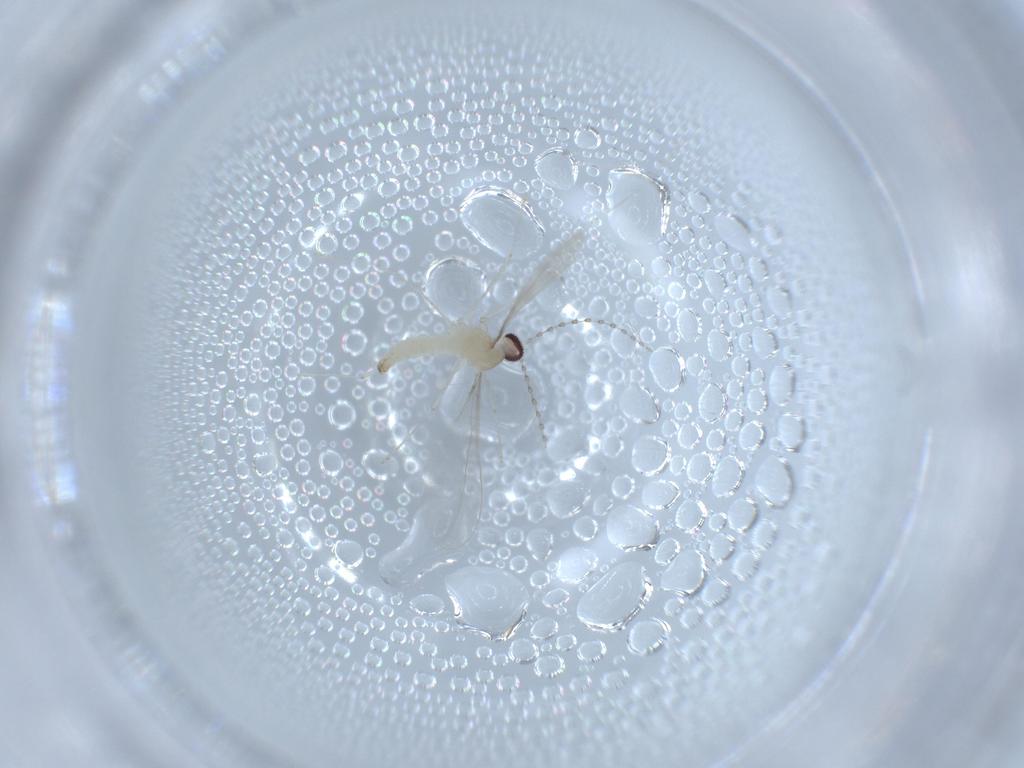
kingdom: Animalia
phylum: Arthropoda
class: Insecta
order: Diptera
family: Cecidomyiidae
